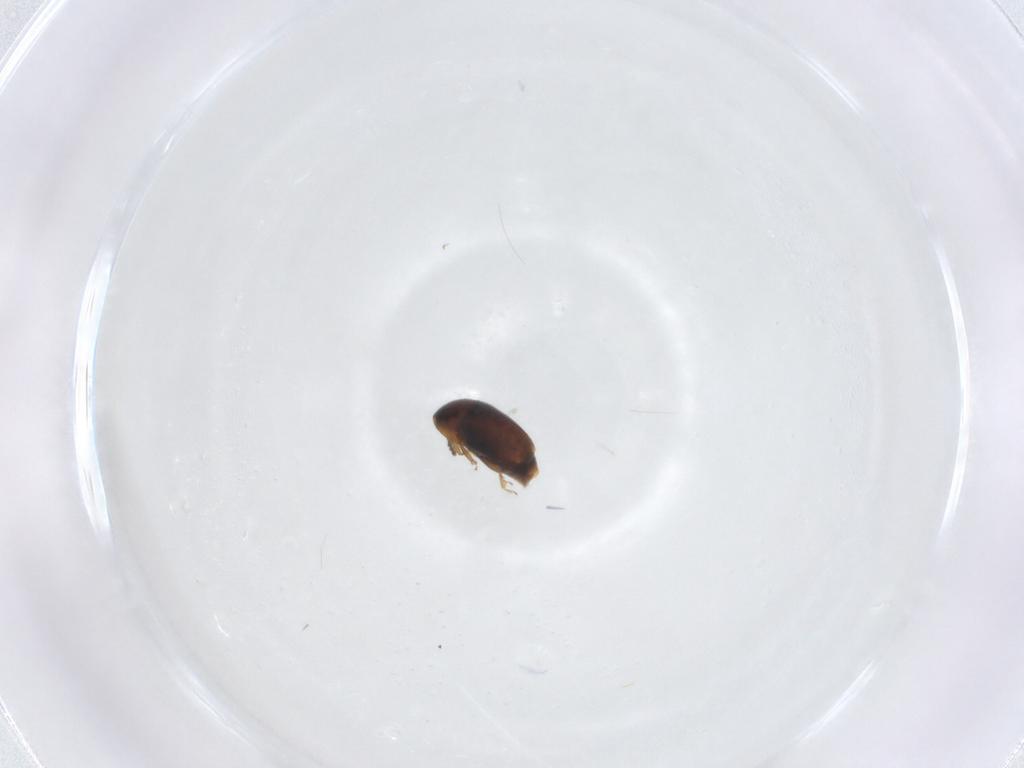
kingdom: Animalia
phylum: Arthropoda
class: Insecta
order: Coleoptera
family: Corylophidae
